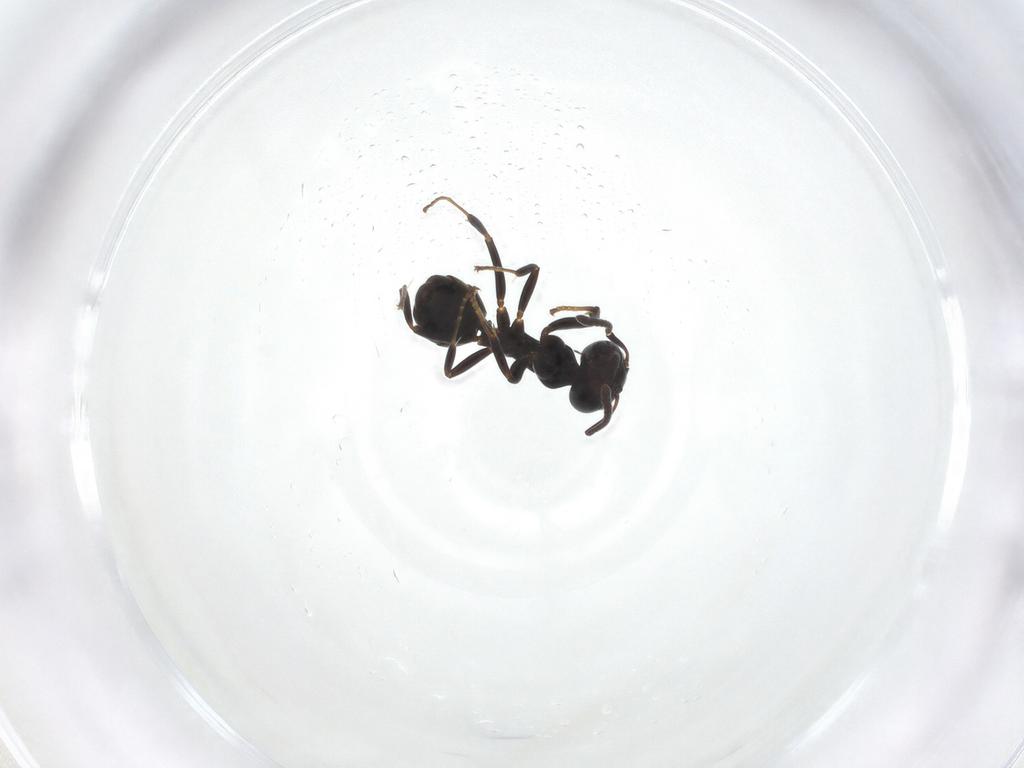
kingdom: Animalia
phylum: Arthropoda
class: Insecta
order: Hymenoptera
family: Formicidae
